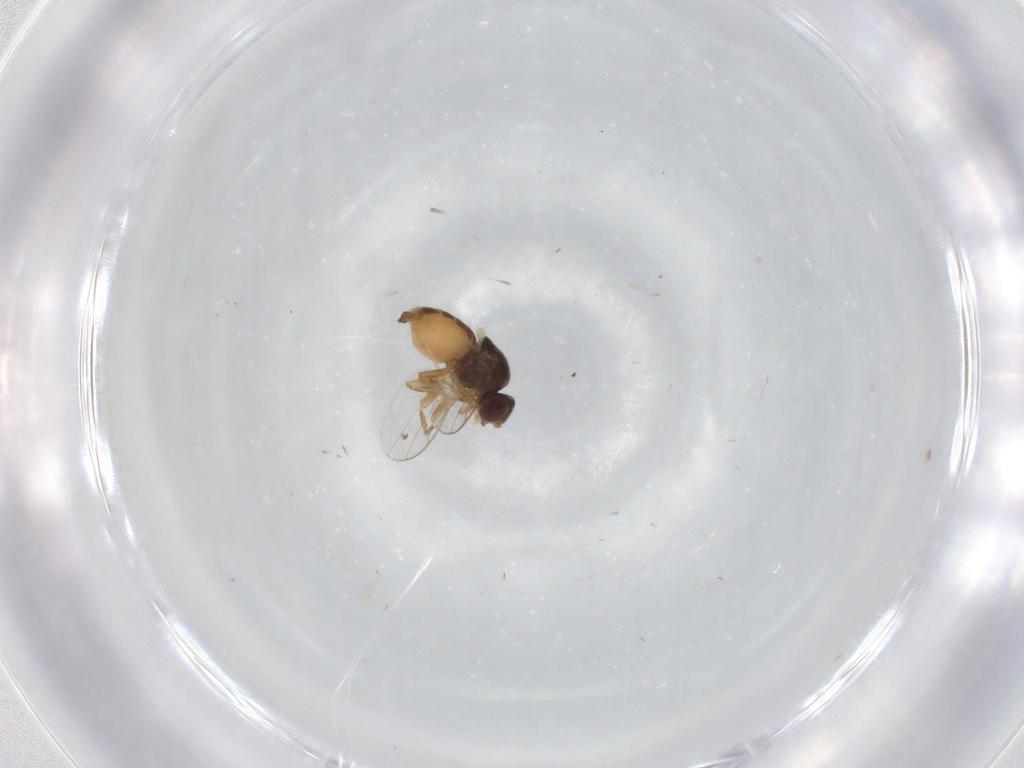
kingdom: Animalia
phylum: Arthropoda
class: Insecta
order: Diptera
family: Cecidomyiidae
